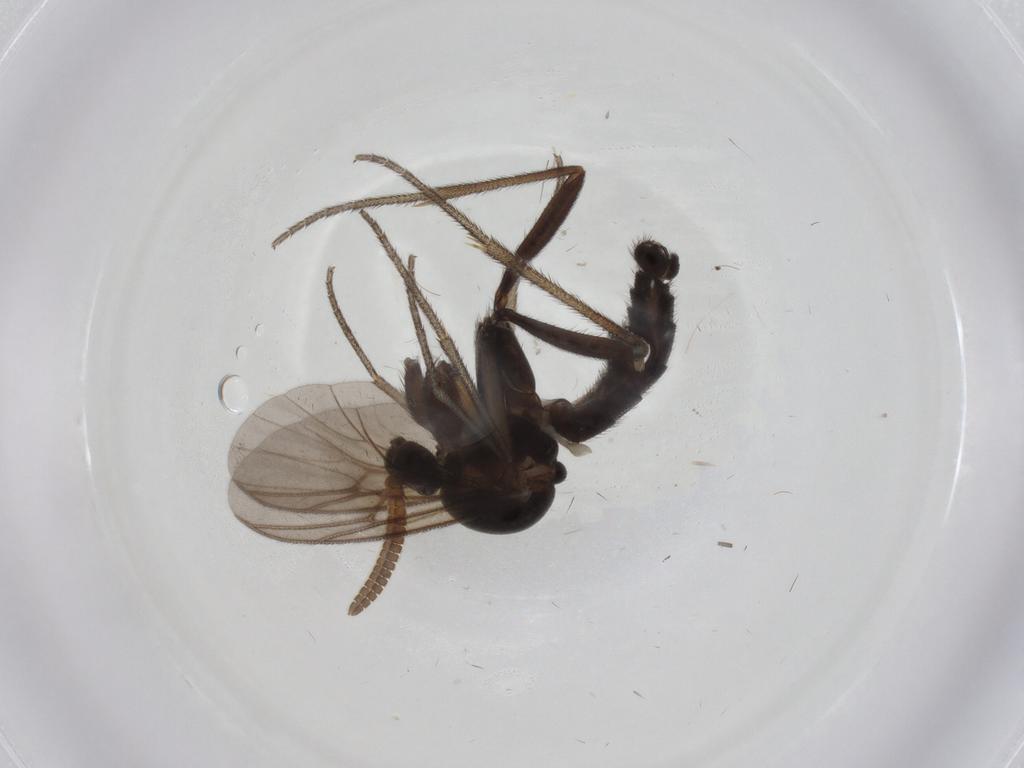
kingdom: Animalia
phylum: Arthropoda
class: Insecta
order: Diptera
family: Mycetophilidae
